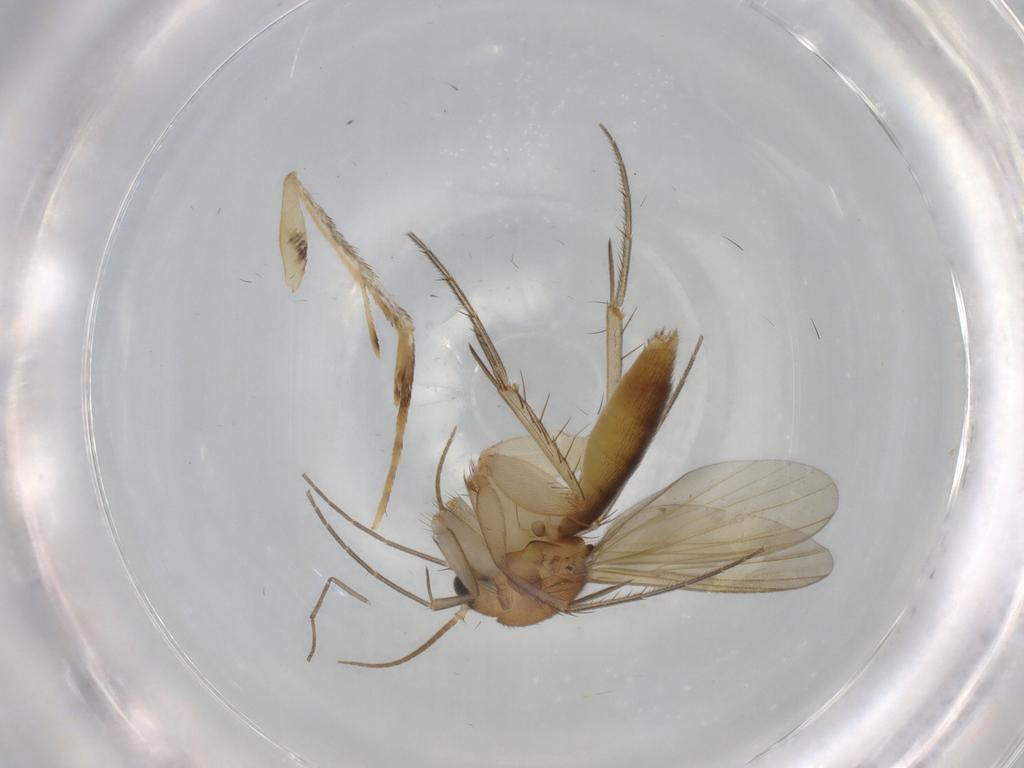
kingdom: Animalia
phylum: Arthropoda
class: Insecta
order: Diptera
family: Mycetophilidae
